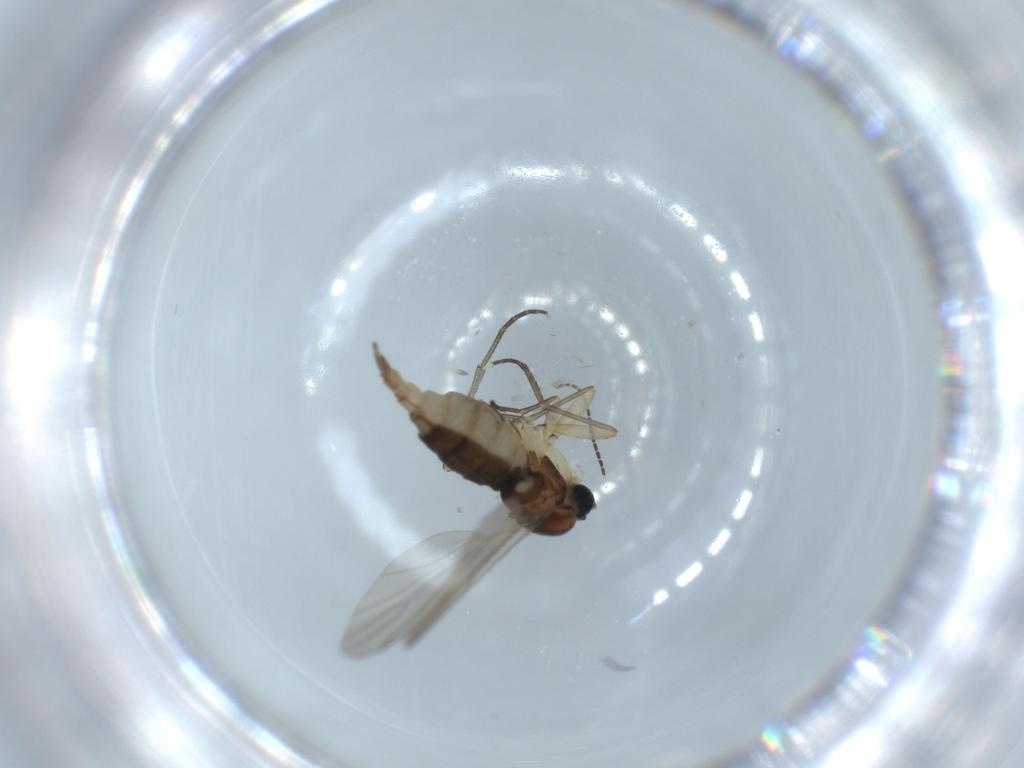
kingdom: Animalia
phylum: Arthropoda
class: Insecta
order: Diptera
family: Sciaridae
